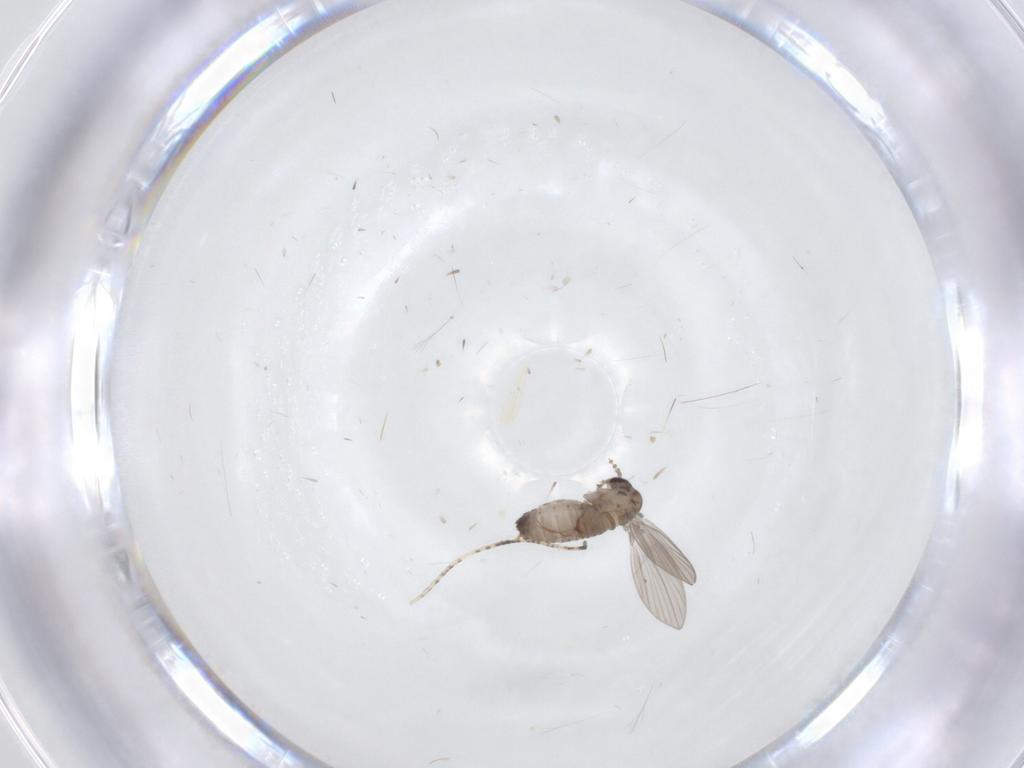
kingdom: Animalia
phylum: Arthropoda
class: Insecta
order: Diptera
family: Psychodidae
